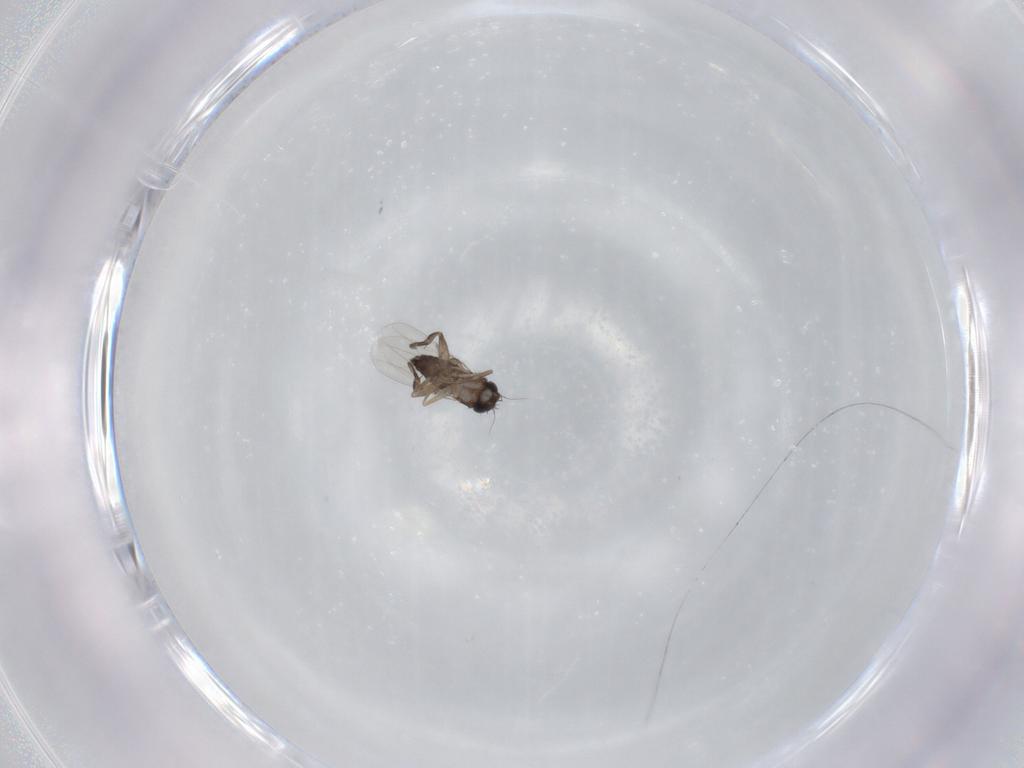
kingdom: Animalia
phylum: Arthropoda
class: Insecta
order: Diptera
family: Phoridae
